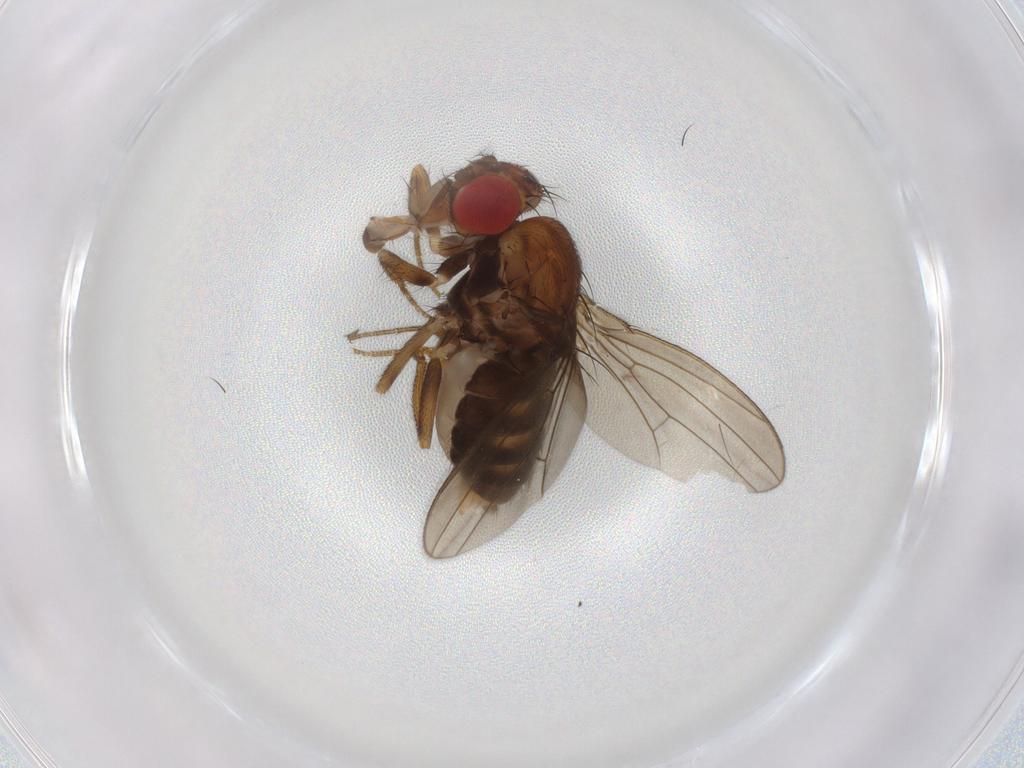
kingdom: Animalia
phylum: Arthropoda
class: Insecta
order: Diptera
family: Drosophilidae
